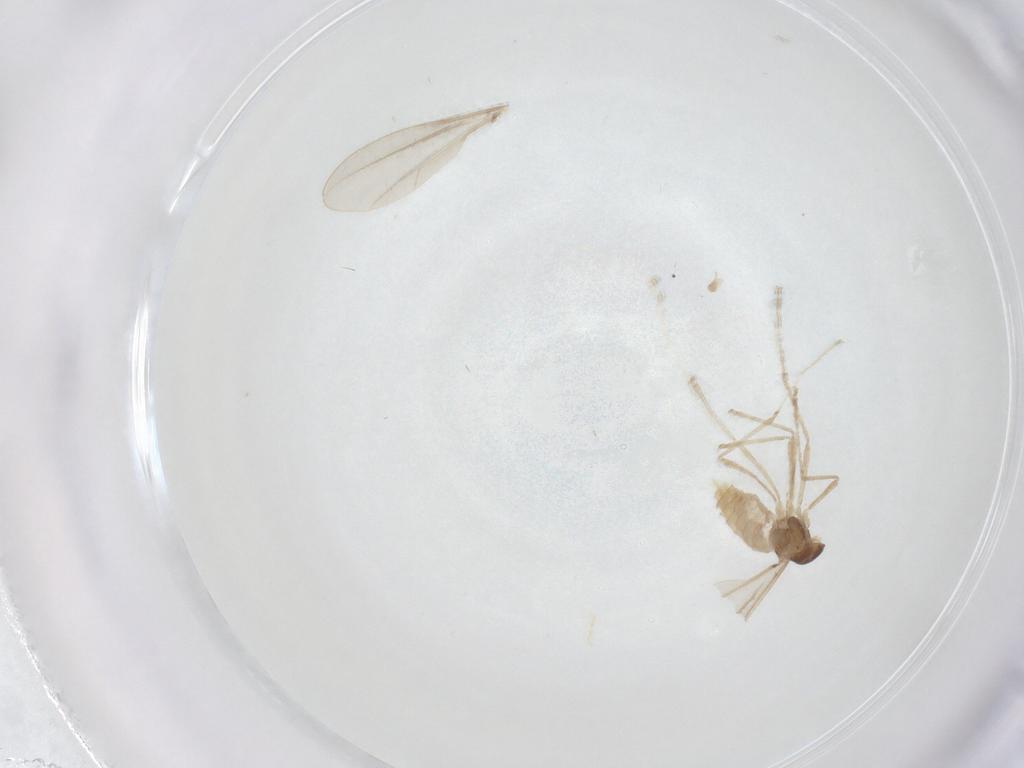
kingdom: Animalia
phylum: Arthropoda
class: Insecta
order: Diptera
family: Cecidomyiidae
